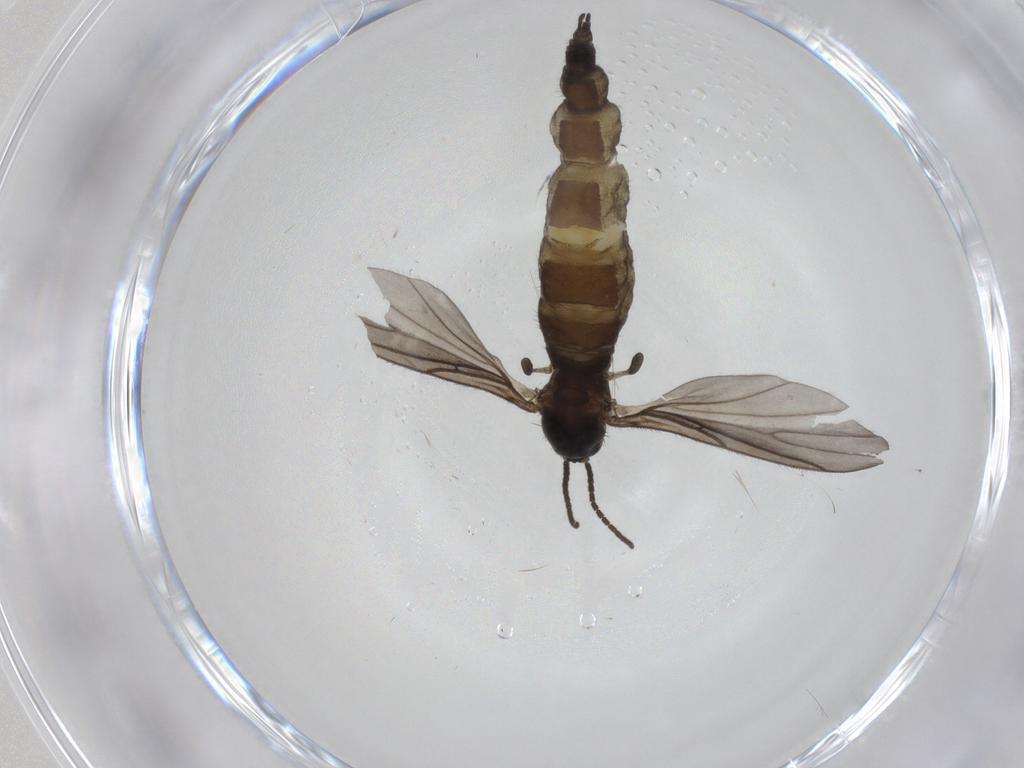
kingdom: Animalia
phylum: Arthropoda
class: Insecta
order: Diptera
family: Sciaridae
